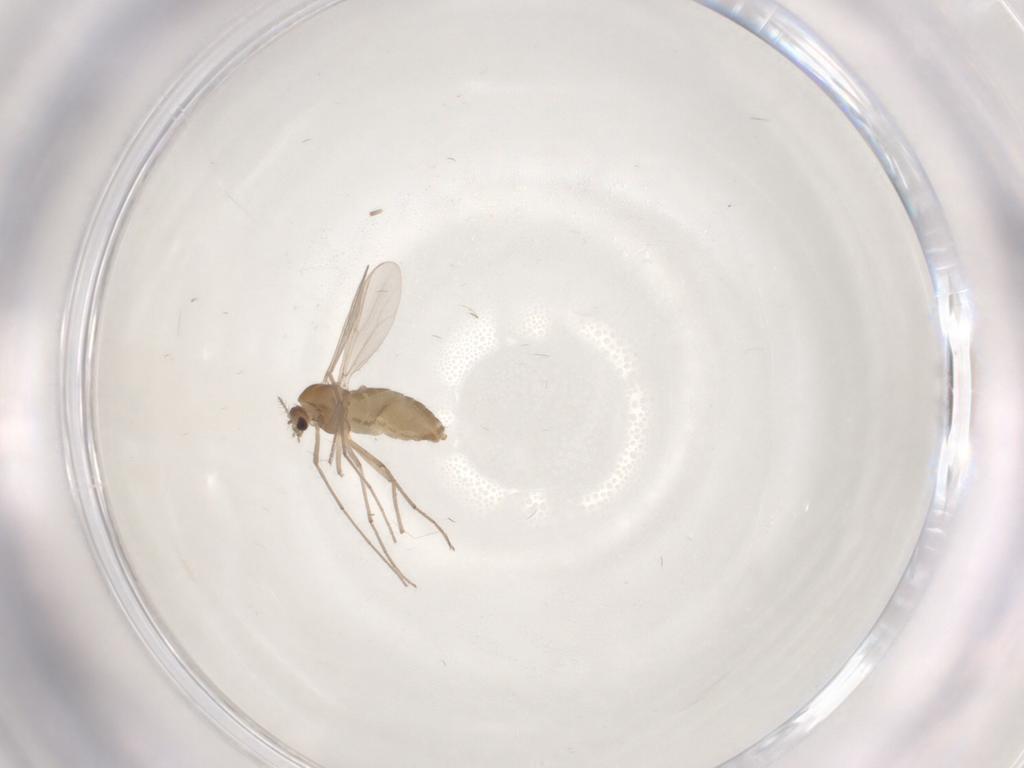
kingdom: Animalia
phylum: Arthropoda
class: Insecta
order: Diptera
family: Chironomidae
